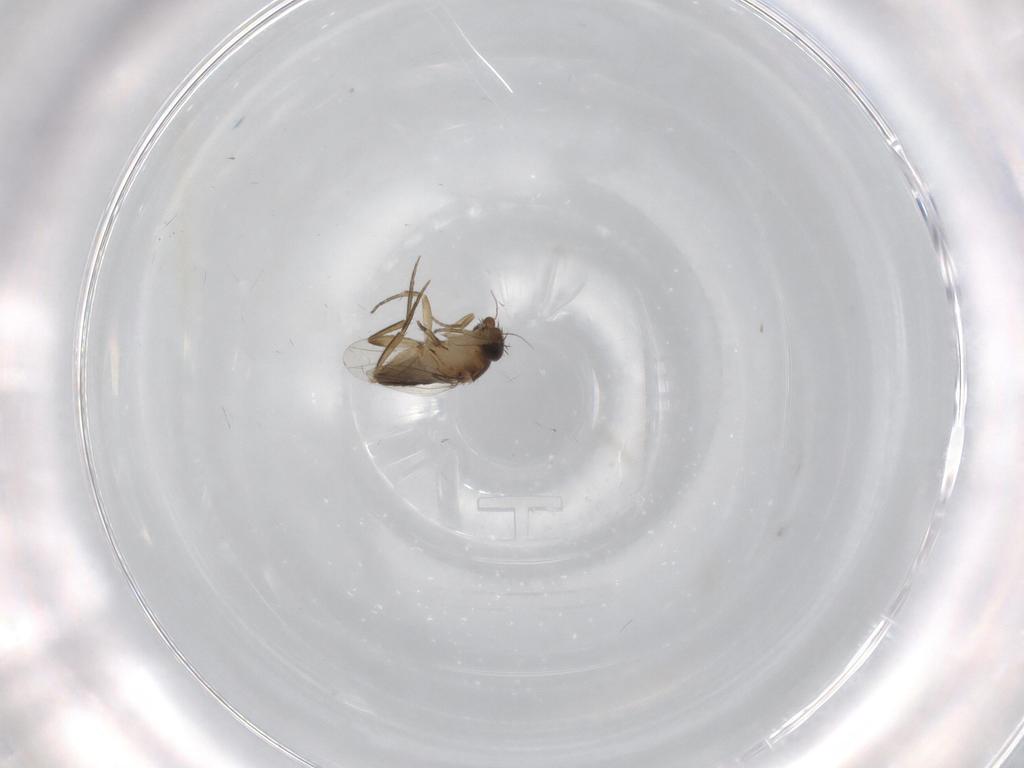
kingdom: Animalia
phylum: Arthropoda
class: Insecta
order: Diptera
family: Phoridae
